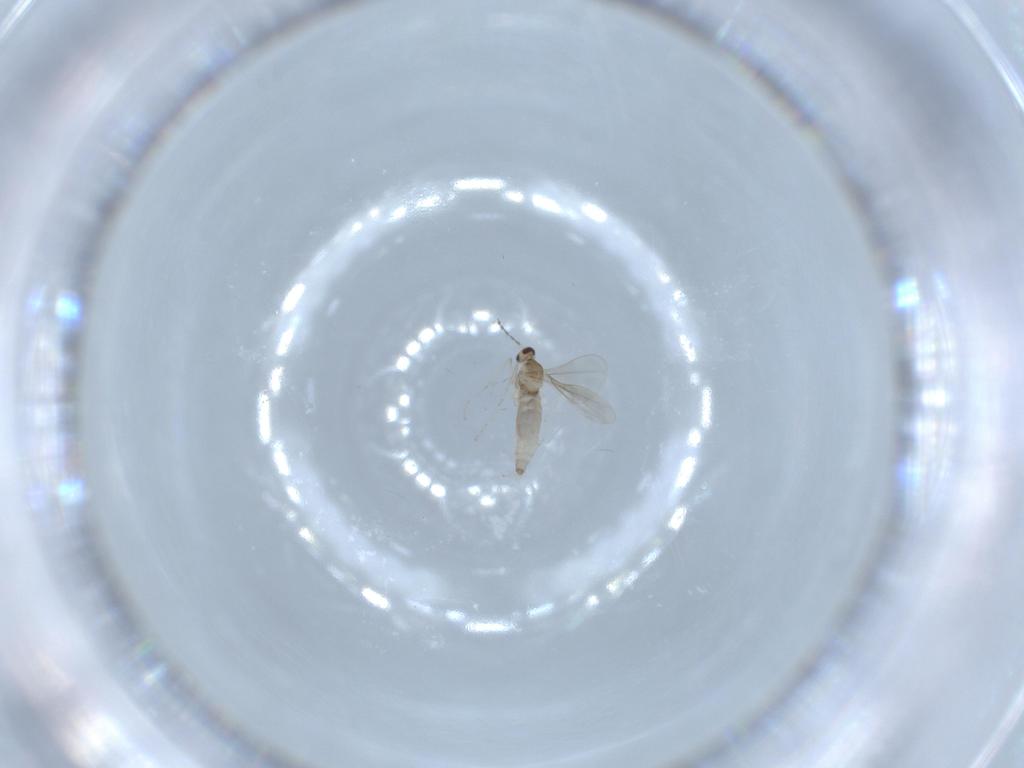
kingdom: Animalia
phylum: Arthropoda
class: Insecta
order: Diptera
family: Cecidomyiidae
